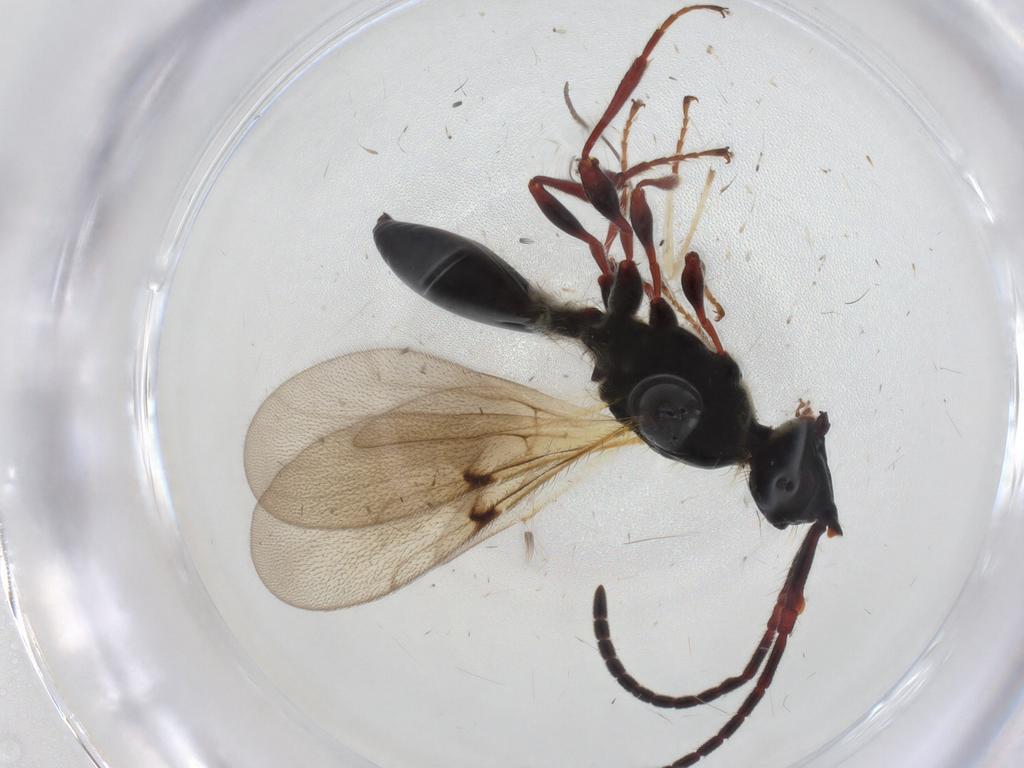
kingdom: Animalia
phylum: Arthropoda
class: Insecta
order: Hymenoptera
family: Diapriidae
